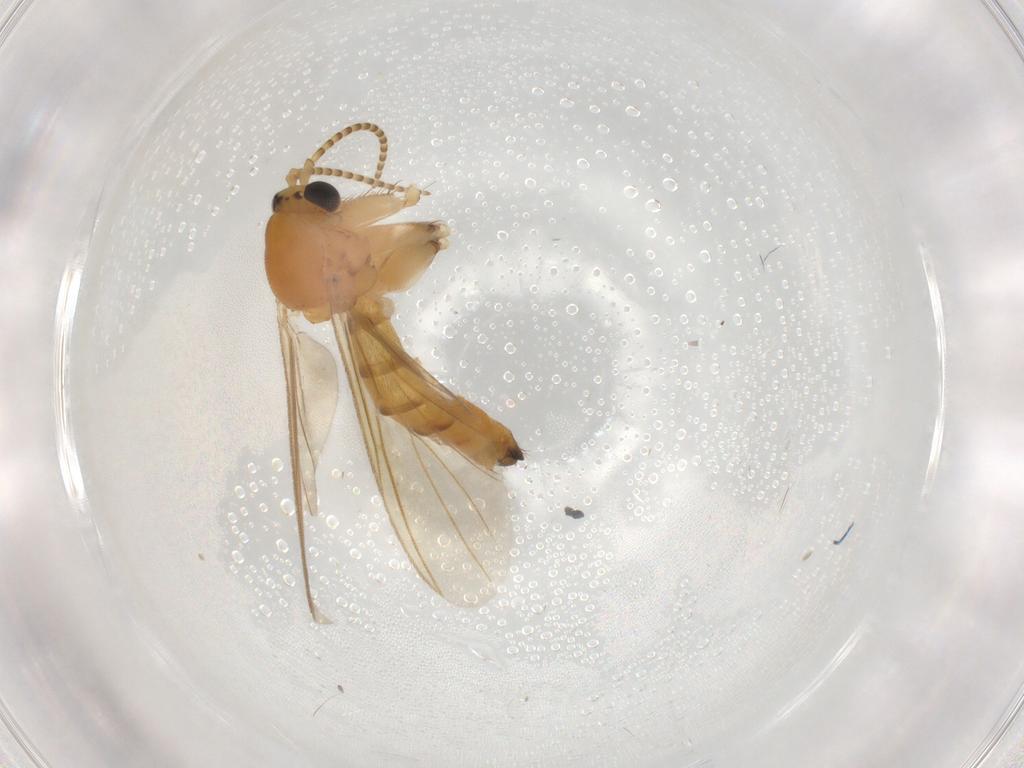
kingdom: Animalia
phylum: Arthropoda
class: Insecta
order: Diptera
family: Mycetophilidae
